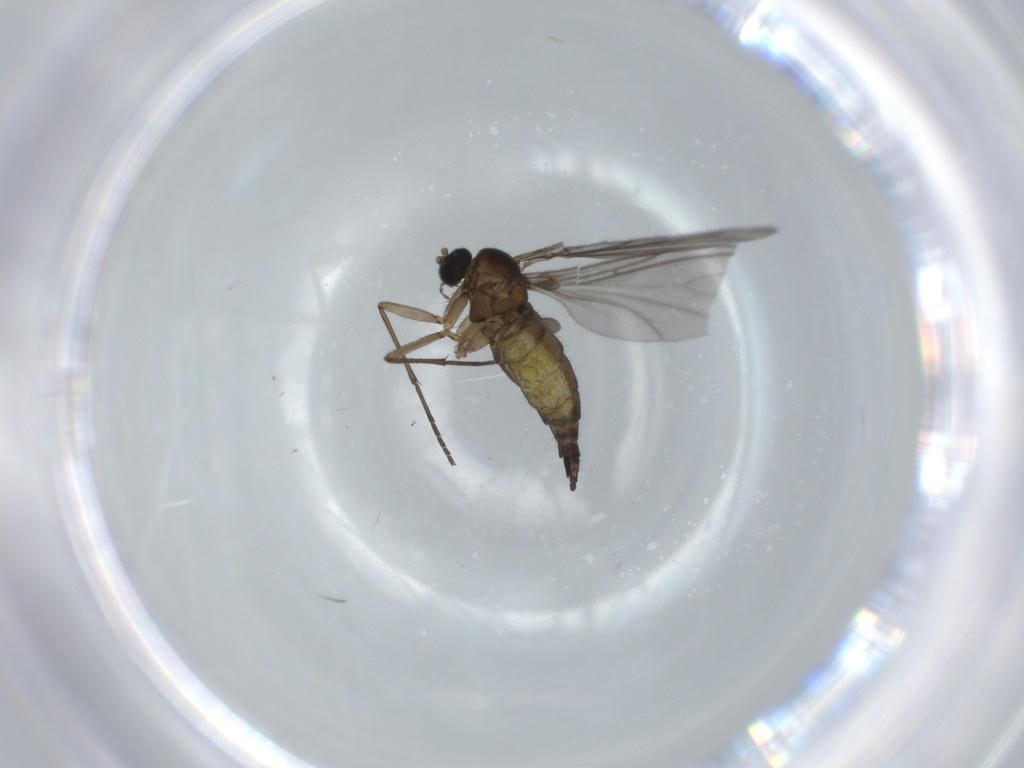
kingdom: Animalia
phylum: Arthropoda
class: Insecta
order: Diptera
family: Sciaridae
